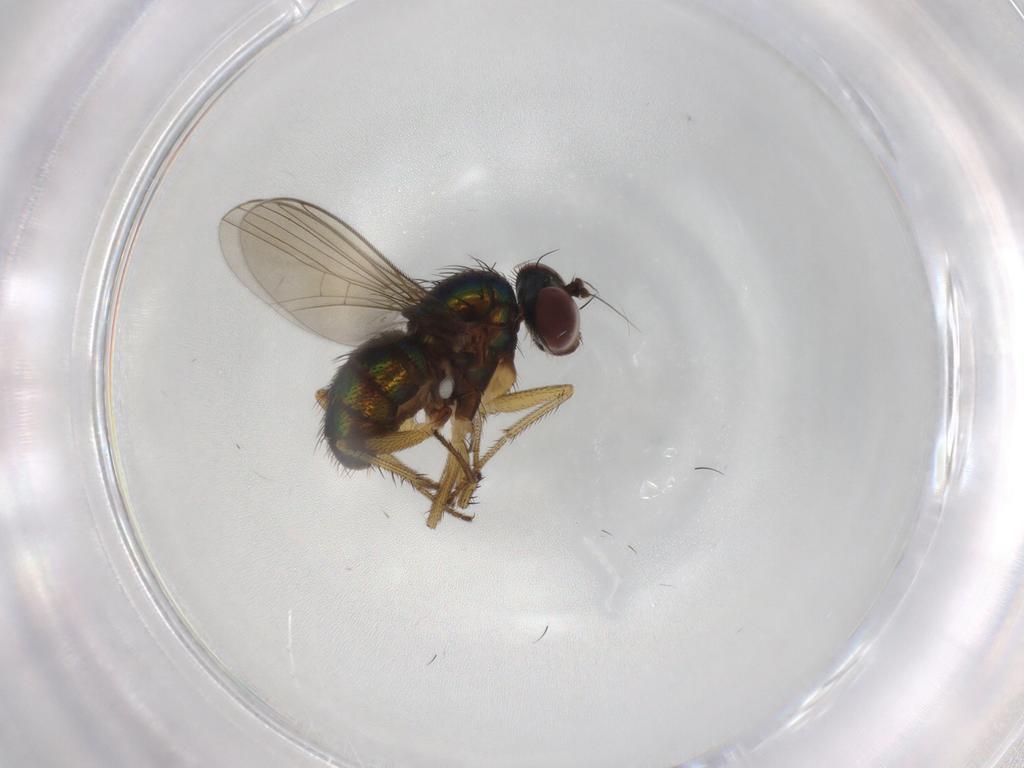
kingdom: Animalia
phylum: Arthropoda
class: Insecta
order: Diptera
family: Dolichopodidae
